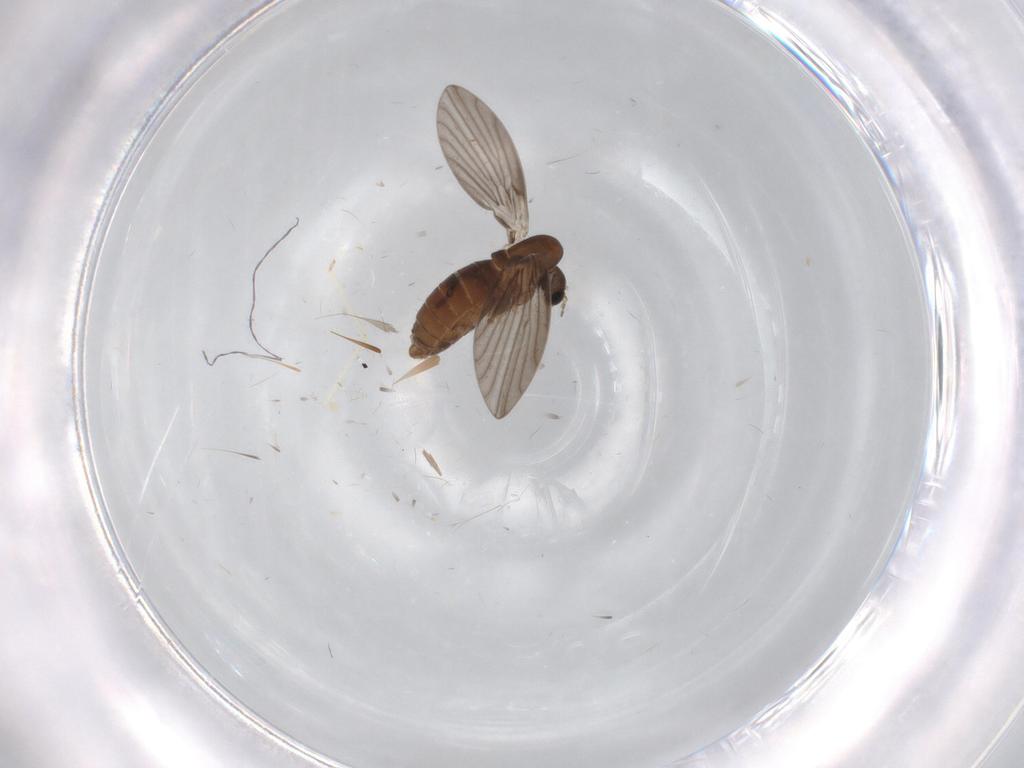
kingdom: Animalia
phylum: Arthropoda
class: Insecta
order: Diptera
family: Psychodidae
